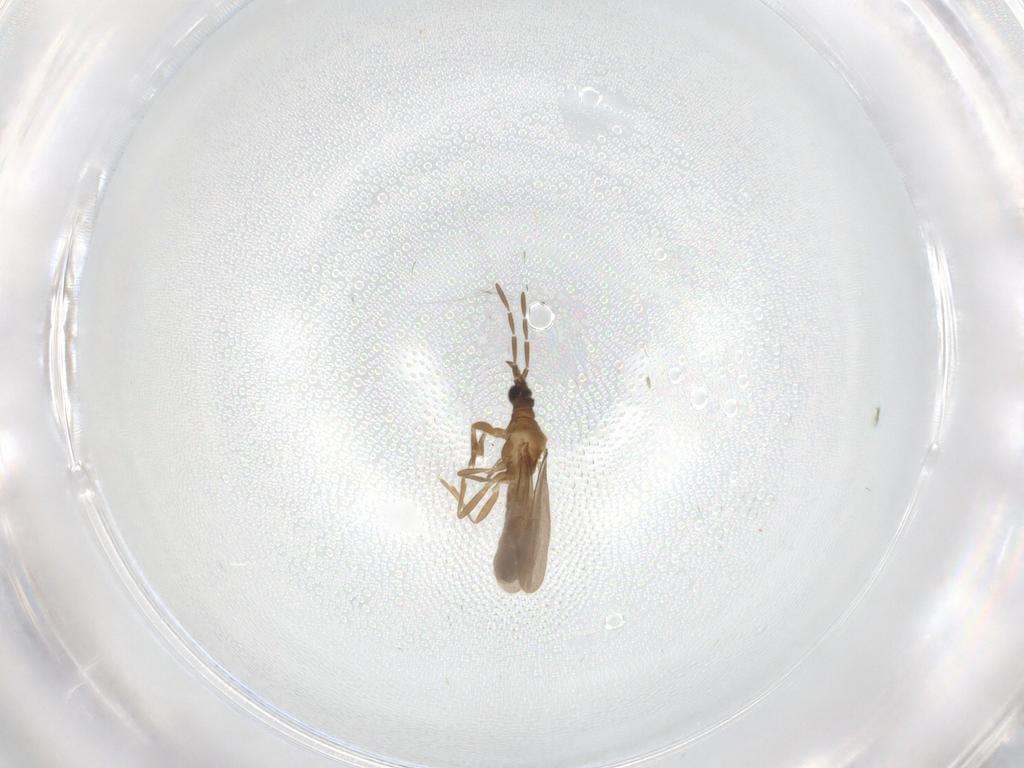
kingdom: Animalia
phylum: Arthropoda
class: Insecta
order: Hemiptera
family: Enicocephalidae
